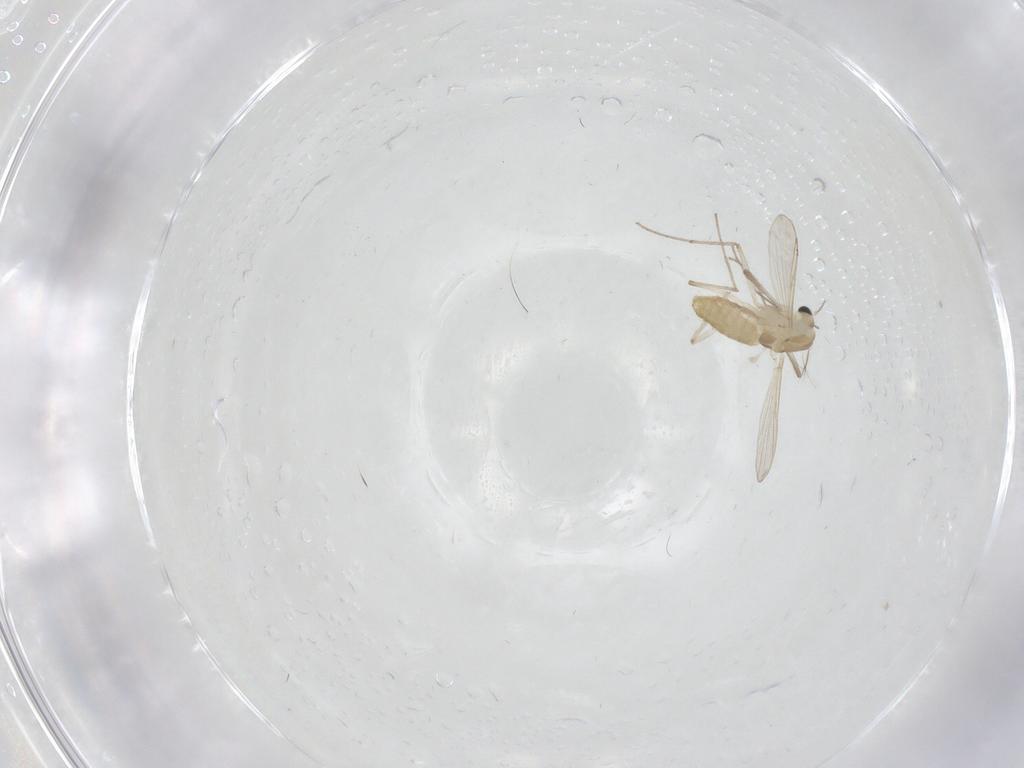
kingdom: Animalia
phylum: Arthropoda
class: Insecta
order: Diptera
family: Chironomidae
